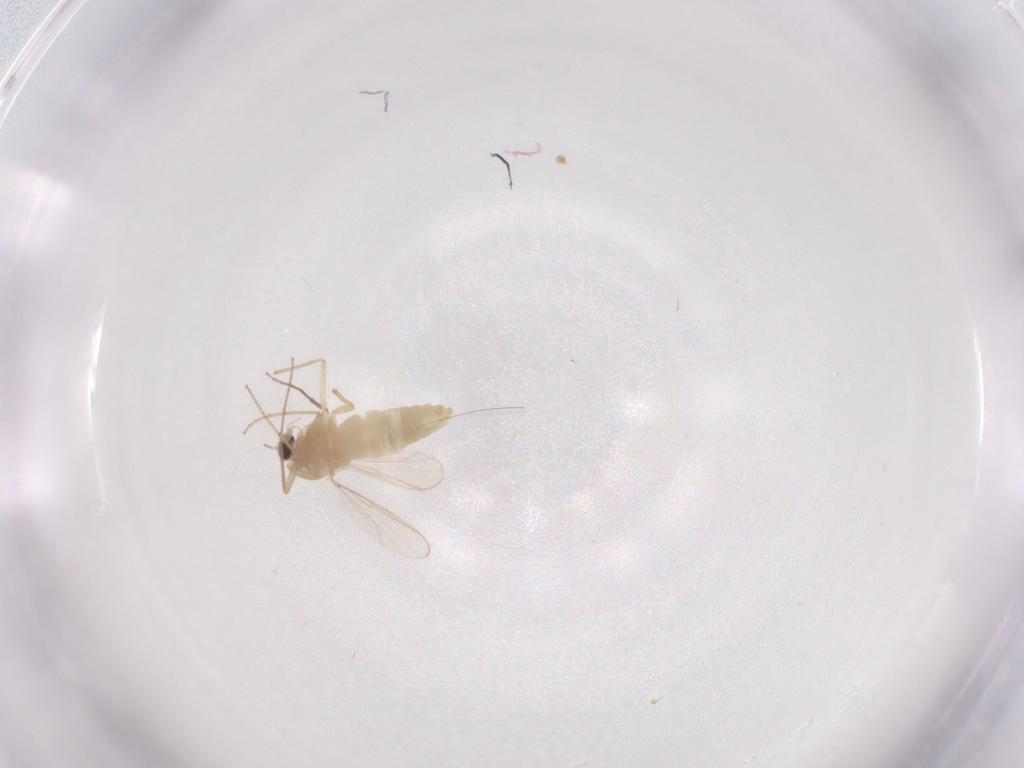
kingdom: Animalia
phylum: Arthropoda
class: Insecta
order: Diptera
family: Chironomidae
